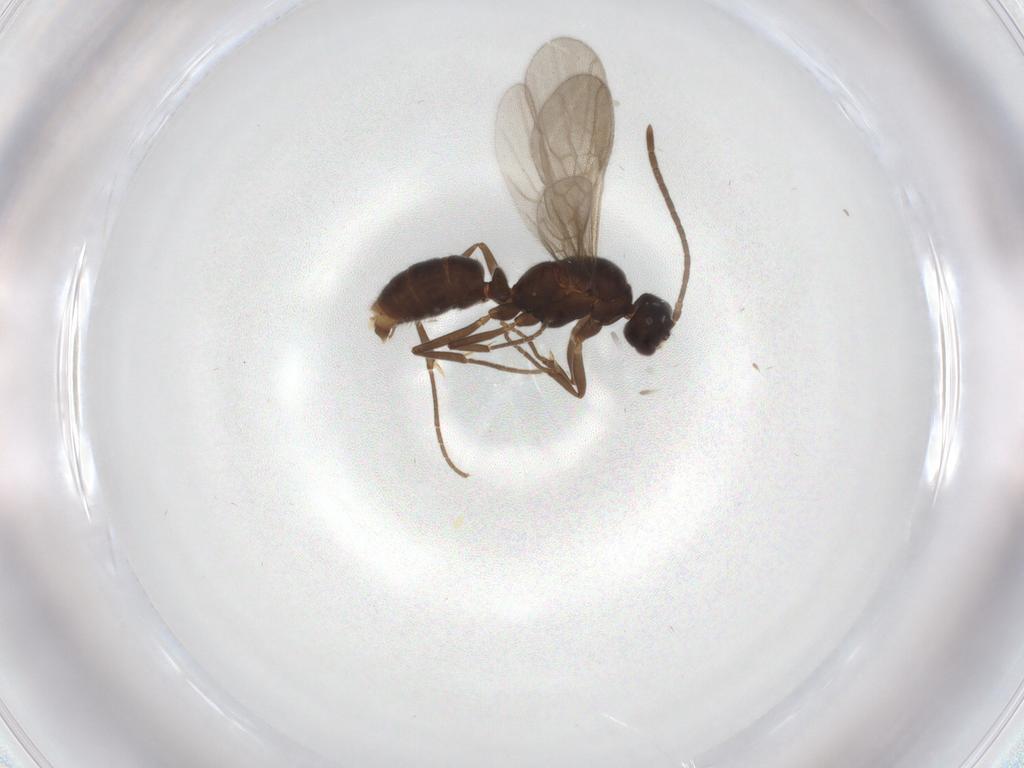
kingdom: Animalia
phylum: Arthropoda
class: Insecta
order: Hymenoptera
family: Formicidae
